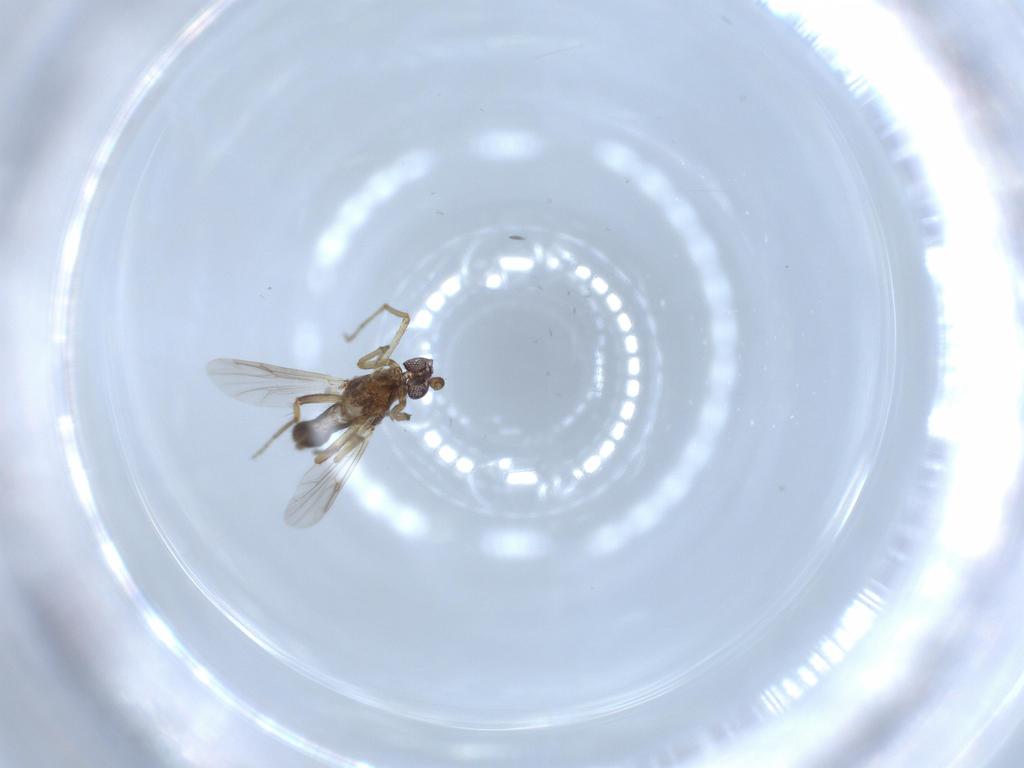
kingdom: Animalia
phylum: Arthropoda
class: Insecta
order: Diptera
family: Ceratopogonidae
